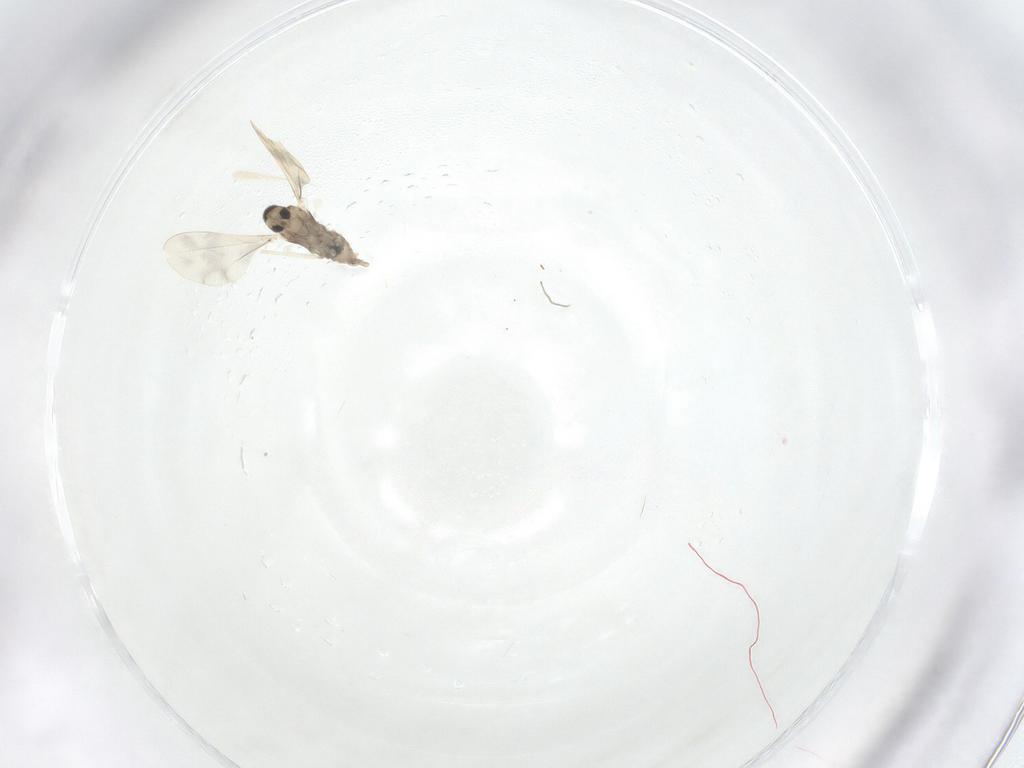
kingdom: Animalia
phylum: Arthropoda
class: Insecta
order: Diptera
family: Cecidomyiidae
